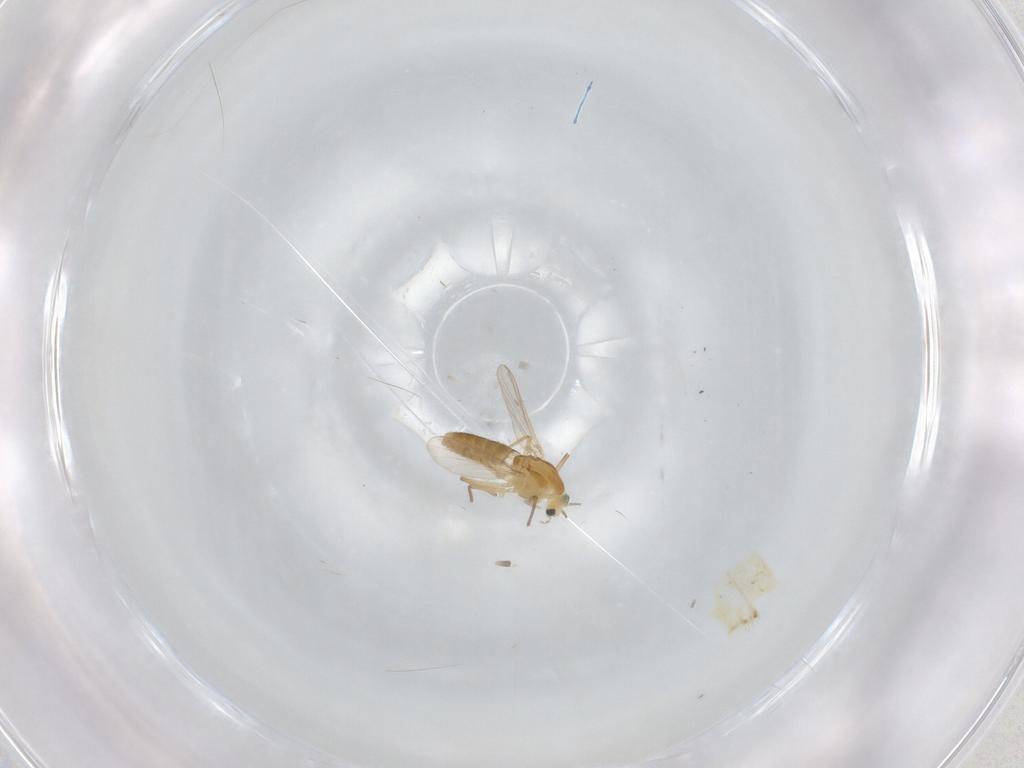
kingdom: Animalia
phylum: Arthropoda
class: Insecta
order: Diptera
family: Chironomidae
